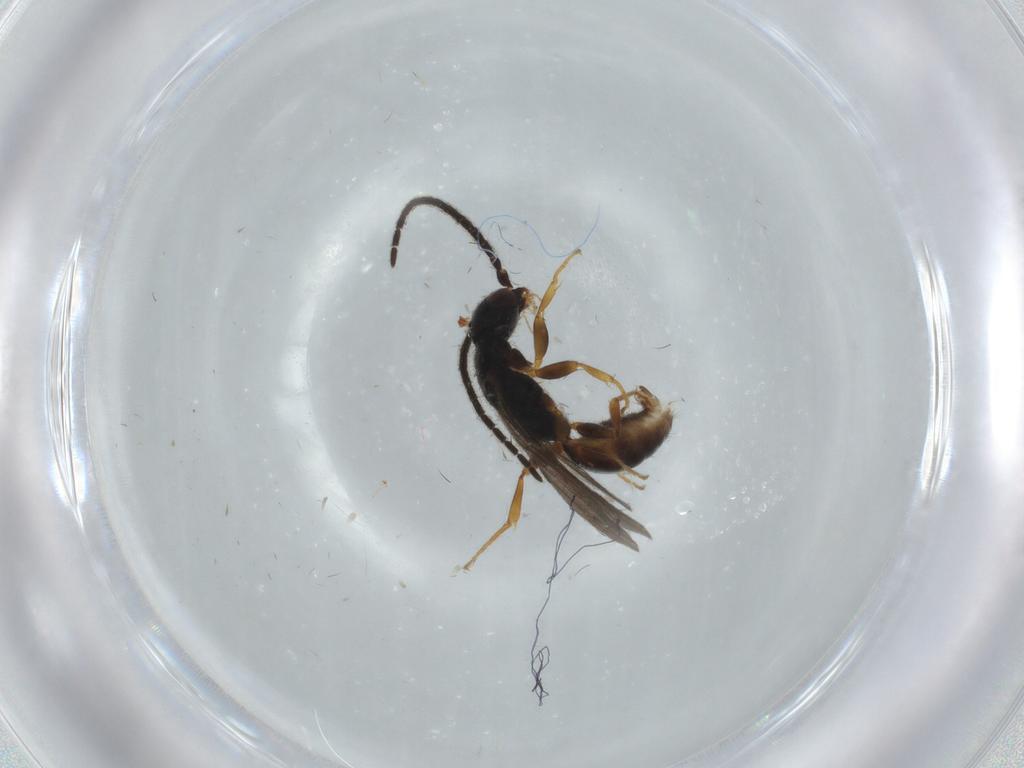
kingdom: Animalia
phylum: Arthropoda
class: Insecta
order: Hymenoptera
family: Bethylidae
